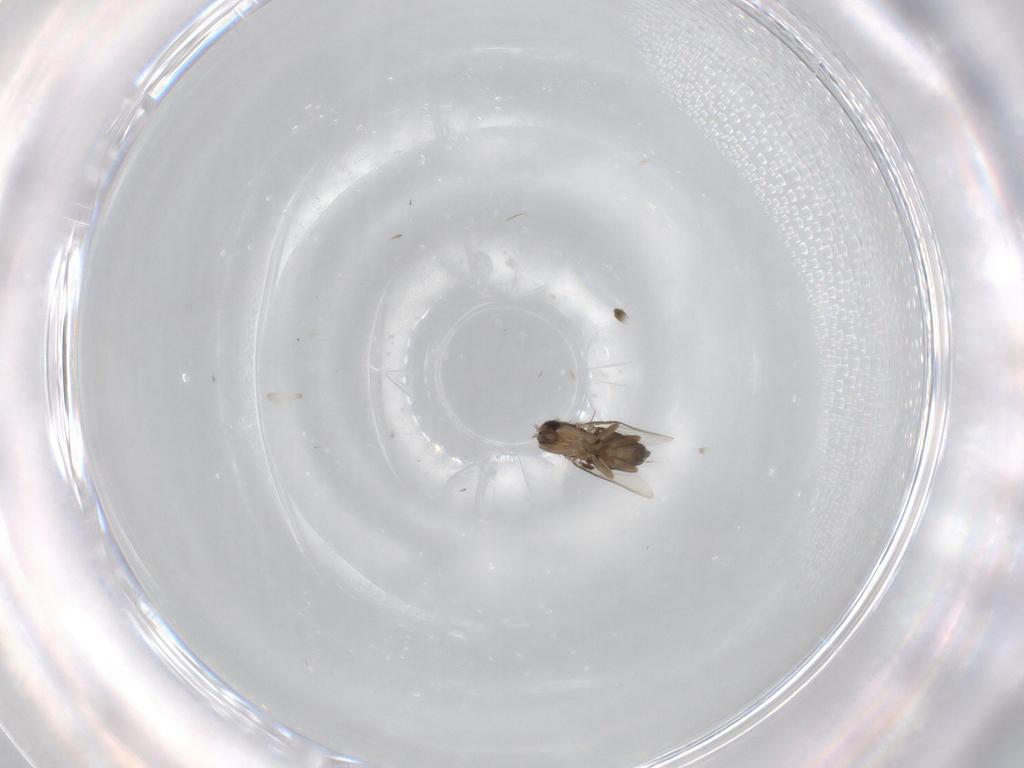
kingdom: Animalia
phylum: Arthropoda
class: Insecta
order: Diptera
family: Phoridae
